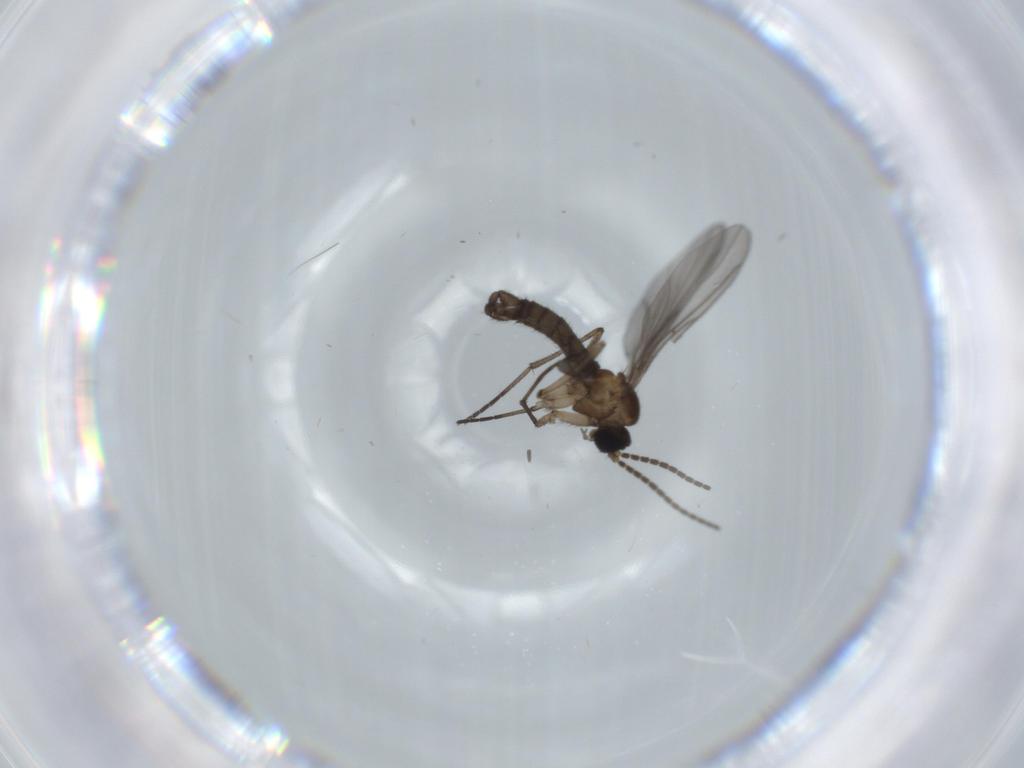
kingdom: Animalia
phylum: Arthropoda
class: Insecta
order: Diptera
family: Sciaridae
